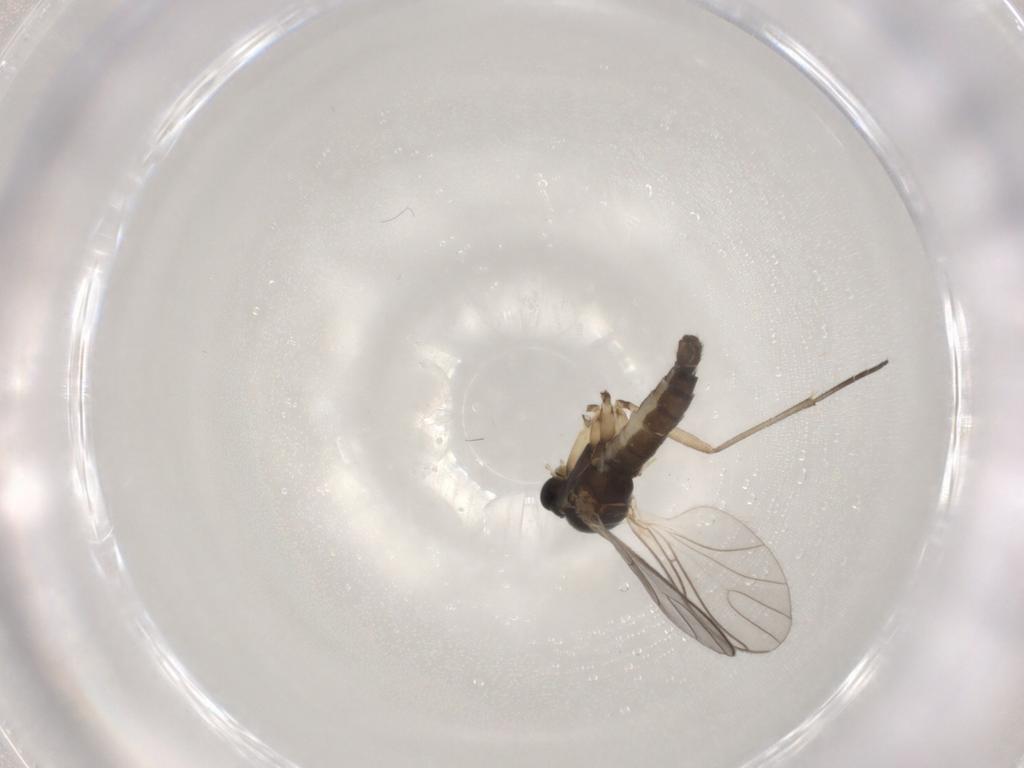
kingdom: Animalia
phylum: Arthropoda
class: Insecta
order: Diptera
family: Sciaridae
